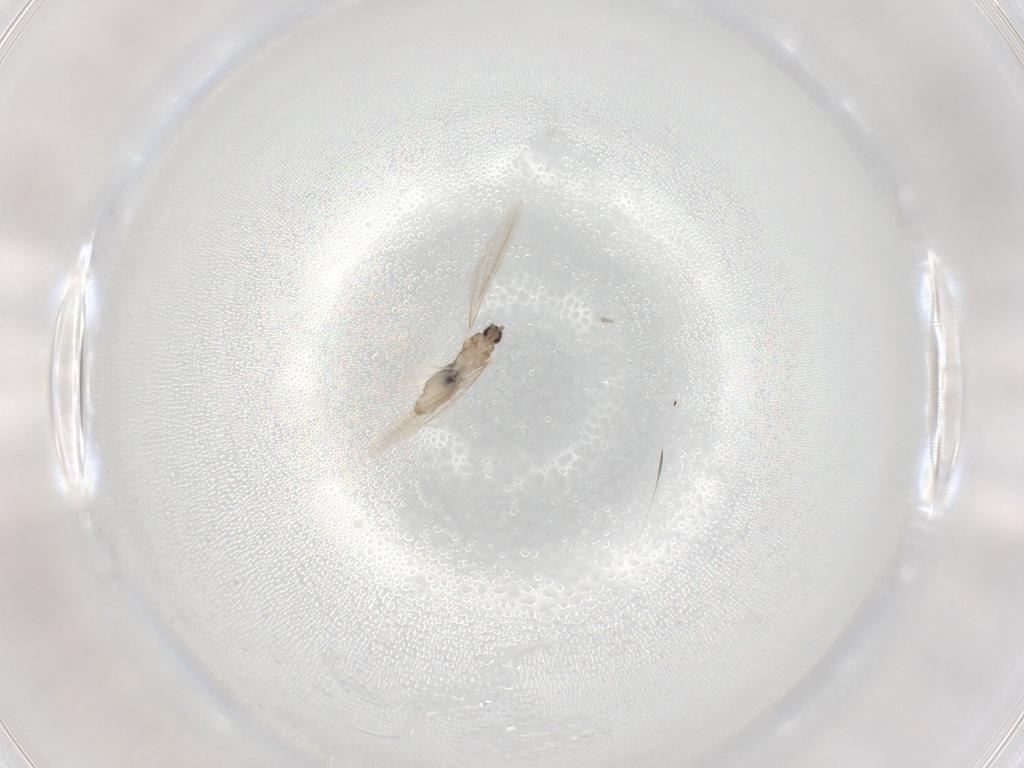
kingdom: Animalia
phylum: Arthropoda
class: Insecta
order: Diptera
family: Cecidomyiidae
